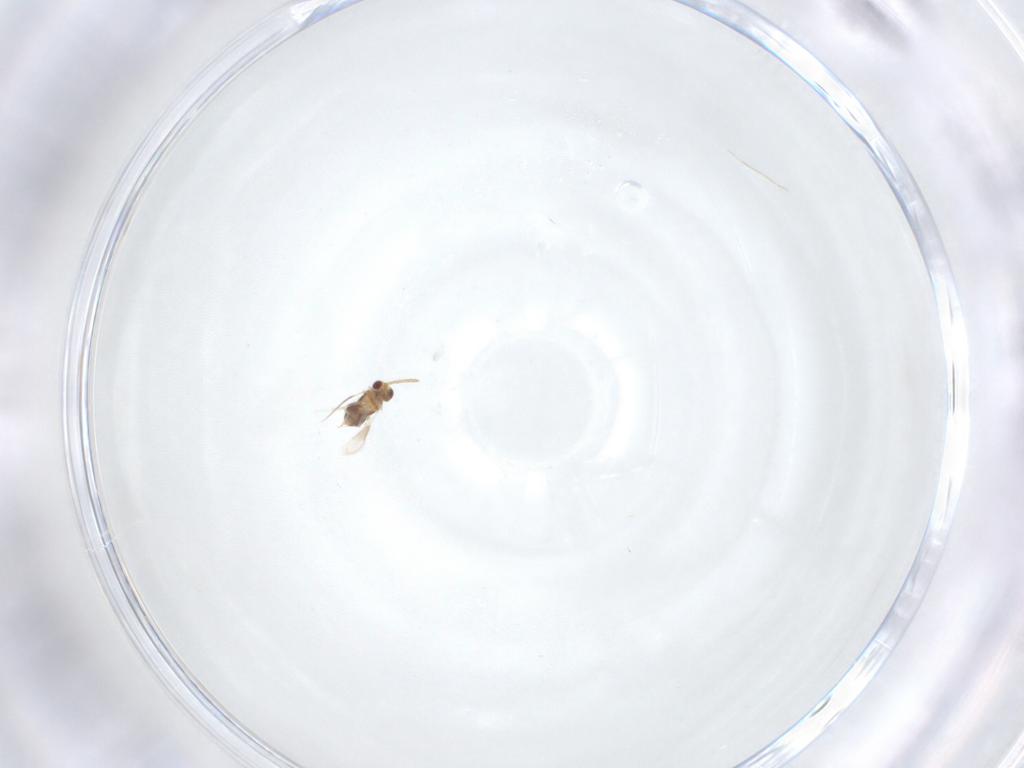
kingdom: Animalia
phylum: Arthropoda
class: Insecta
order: Hymenoptera
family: Aphelinidae
